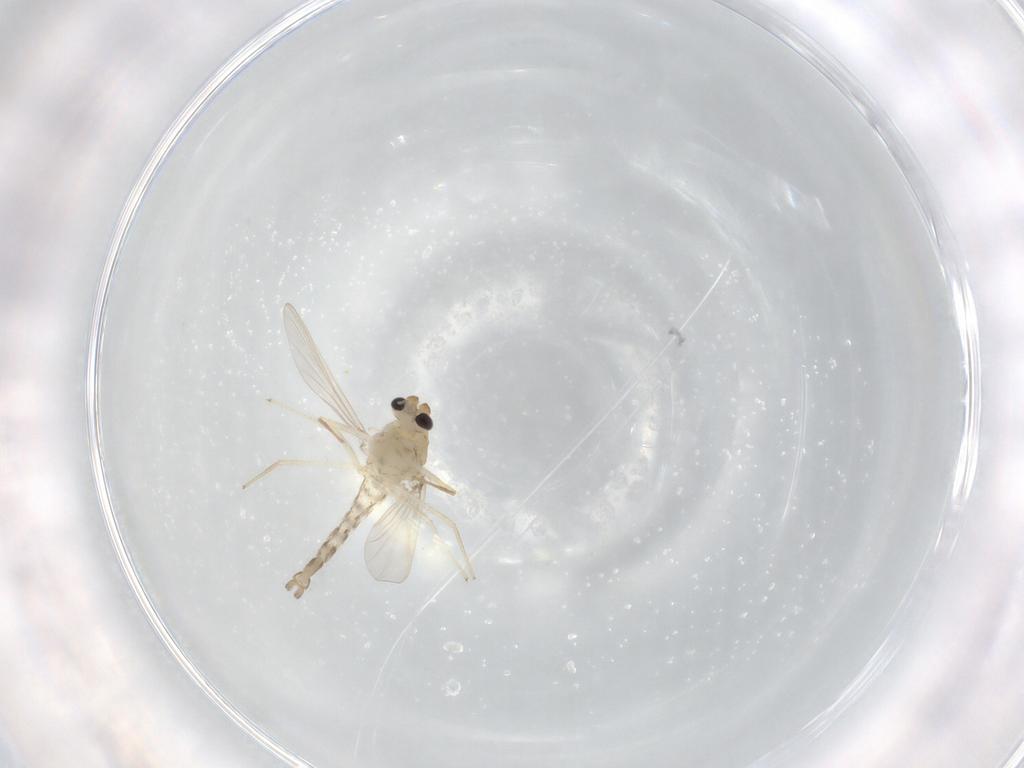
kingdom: Animalia
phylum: Arthropoda
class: Insecta
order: Diptera
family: Chironomidae
